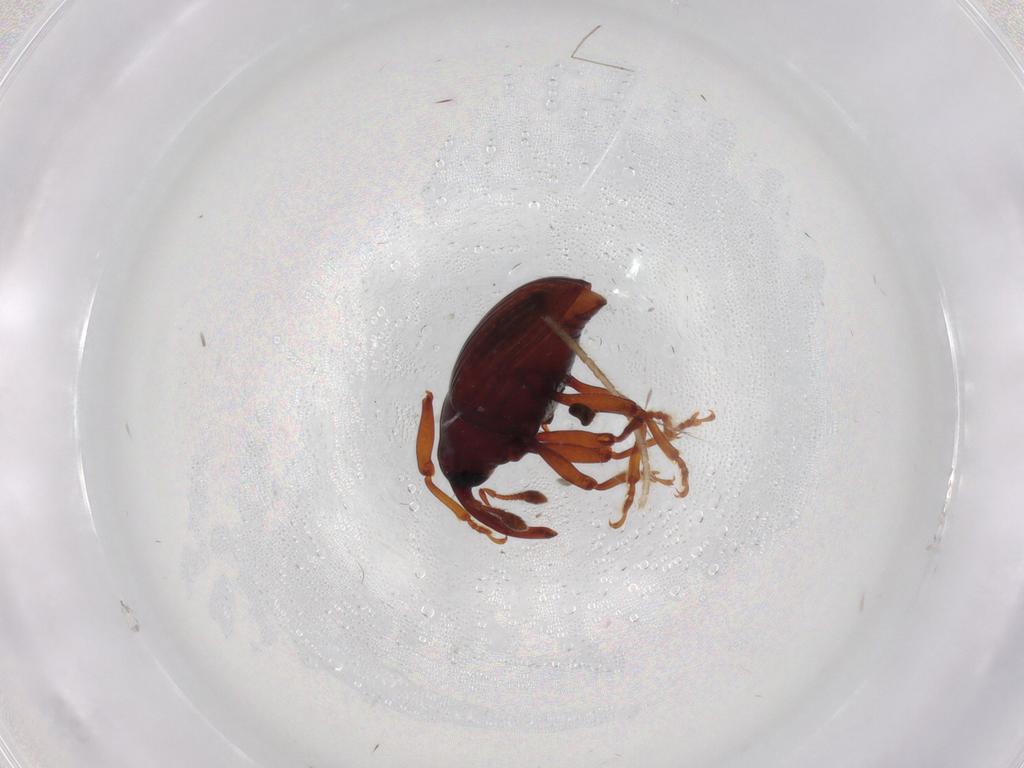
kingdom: Animalia
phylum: Arthropoda
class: Insecta
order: Coleoptera
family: Curculionidae
